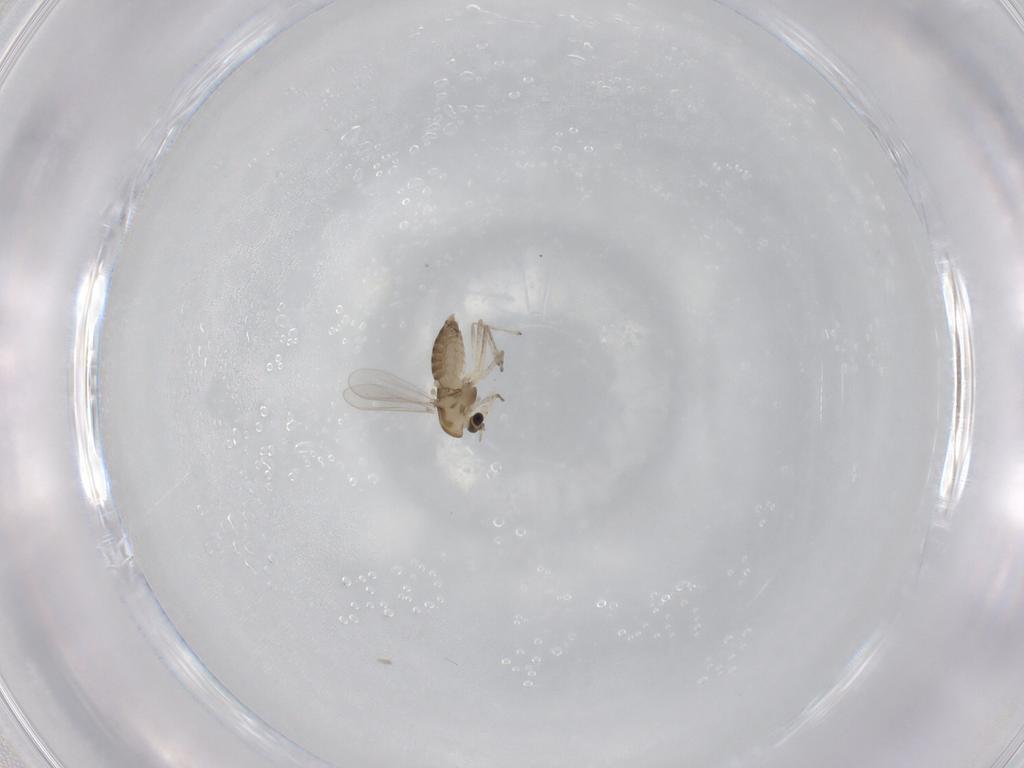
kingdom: Animalia
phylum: Arthropoda
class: Insecta
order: Diptera
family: Chironomidae
